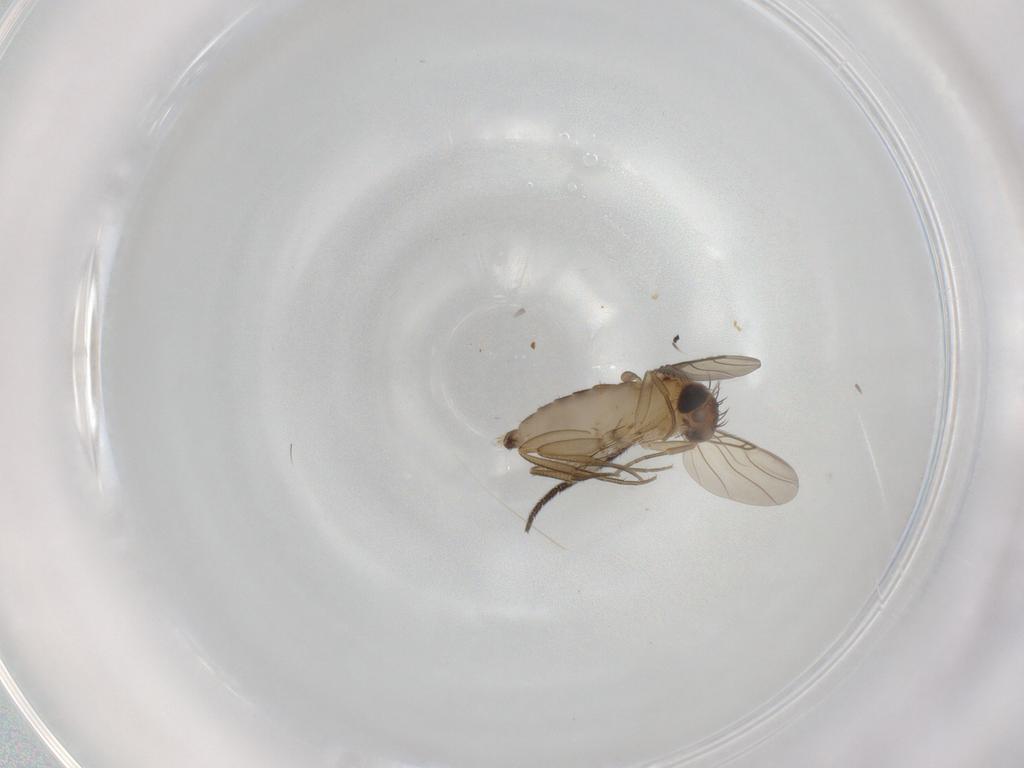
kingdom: Animalia
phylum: Arthropoda
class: Insecta
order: Diptera
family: Phoridae
